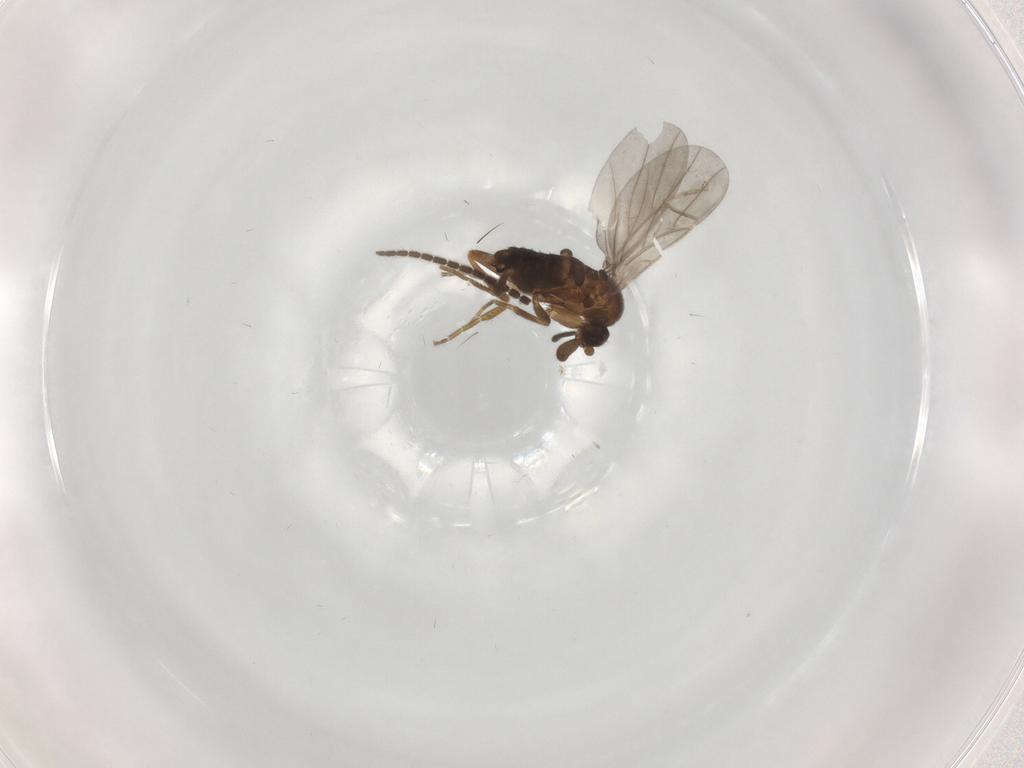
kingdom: Animalia
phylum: Arthropoda
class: Insecta
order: Diptera
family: Phoridae
